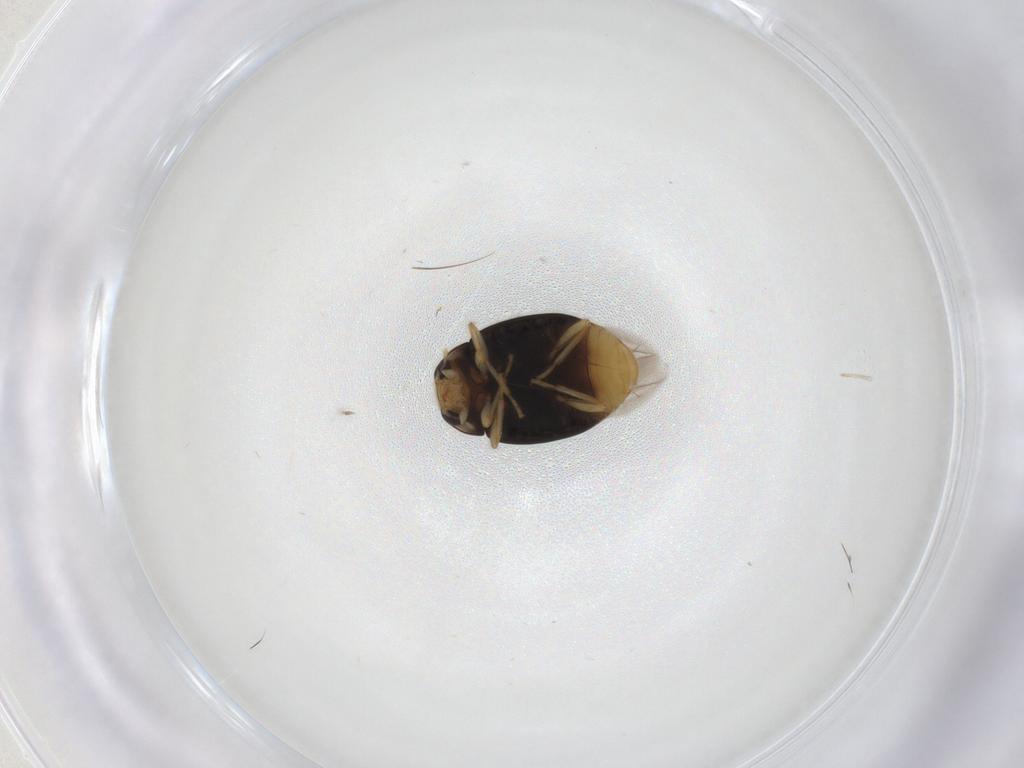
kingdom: Animalia
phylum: Arthropoda
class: Insecta
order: Coleoptera
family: Coccinellidae
